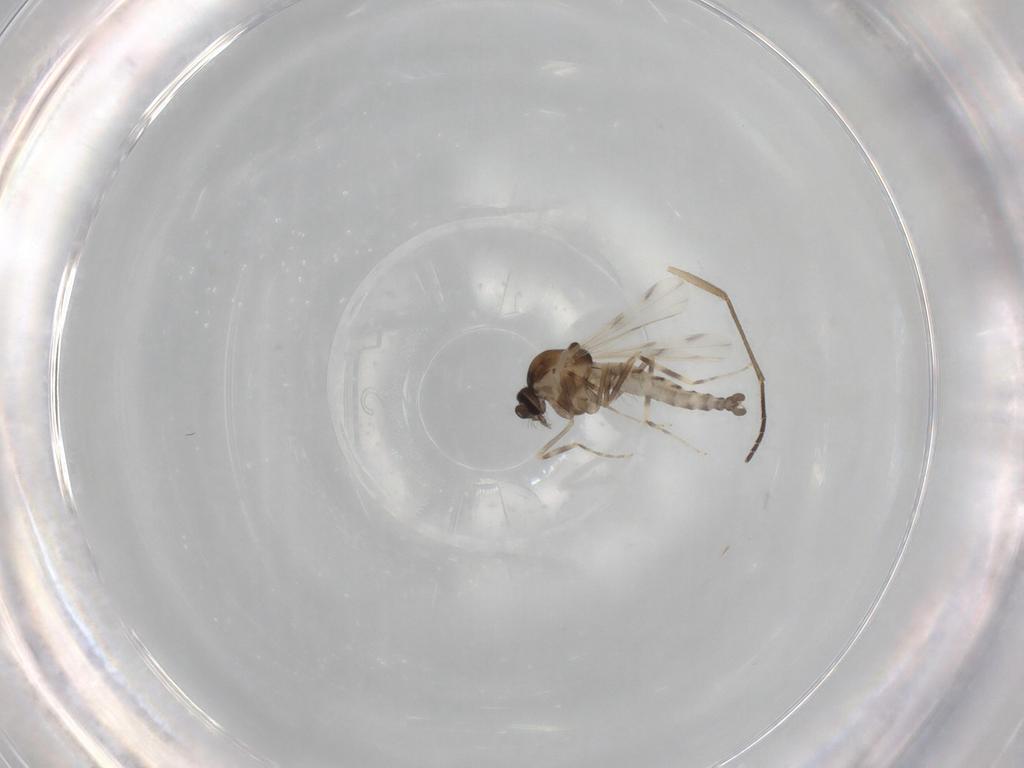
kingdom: Animalia
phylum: Arthropoda
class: Insecta
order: Diptera
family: Ceratopogonidae
